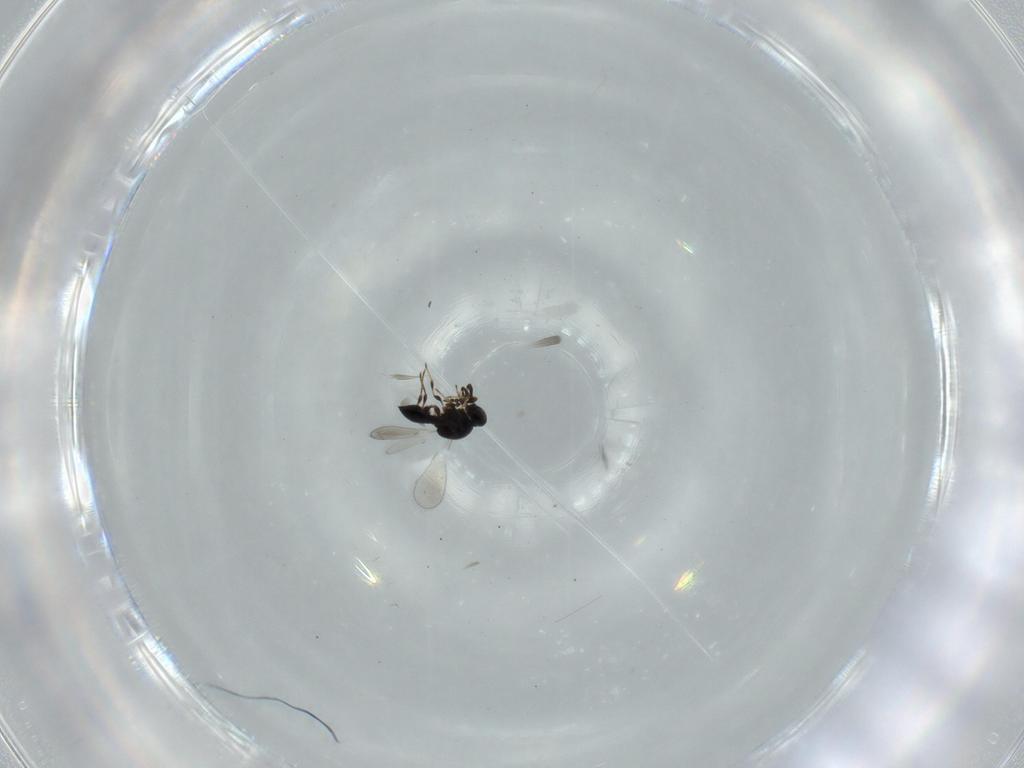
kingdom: Animalia
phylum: Arthropoda
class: Insecta
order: Hymenoptera
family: Platygastridae
